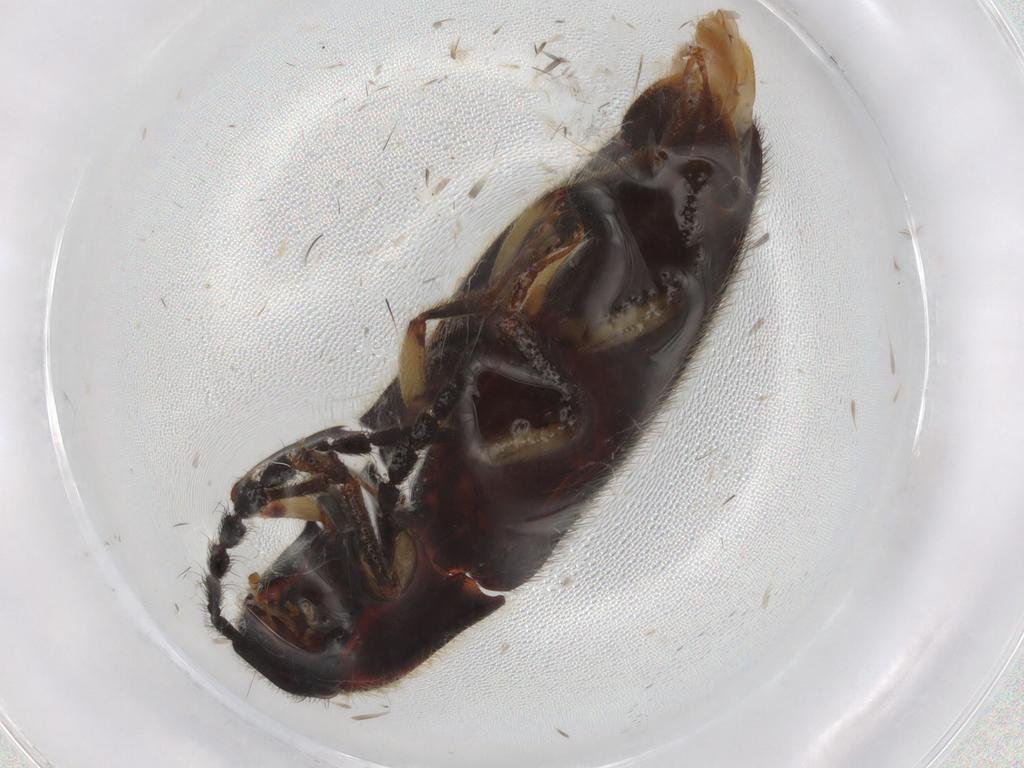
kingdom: Animalia
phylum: Arthropoda
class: Insecta
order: Coleoptera
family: Elateridae
